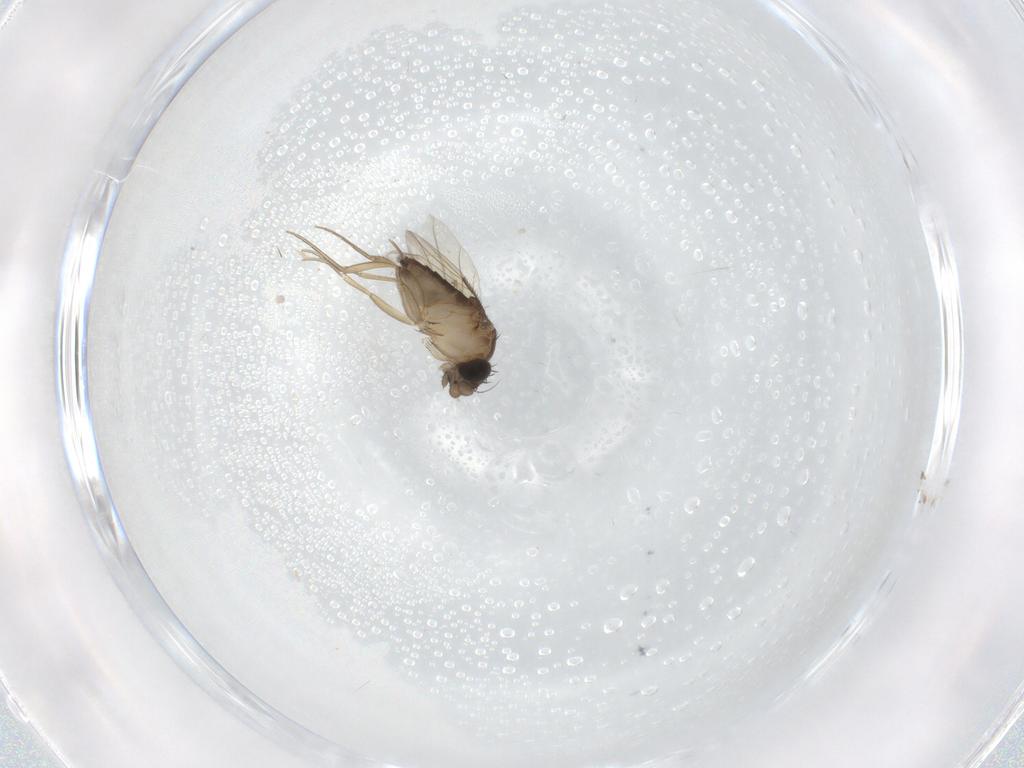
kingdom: Animalia
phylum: Arthropoda
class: Insecta
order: Diptera
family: Phoridae
